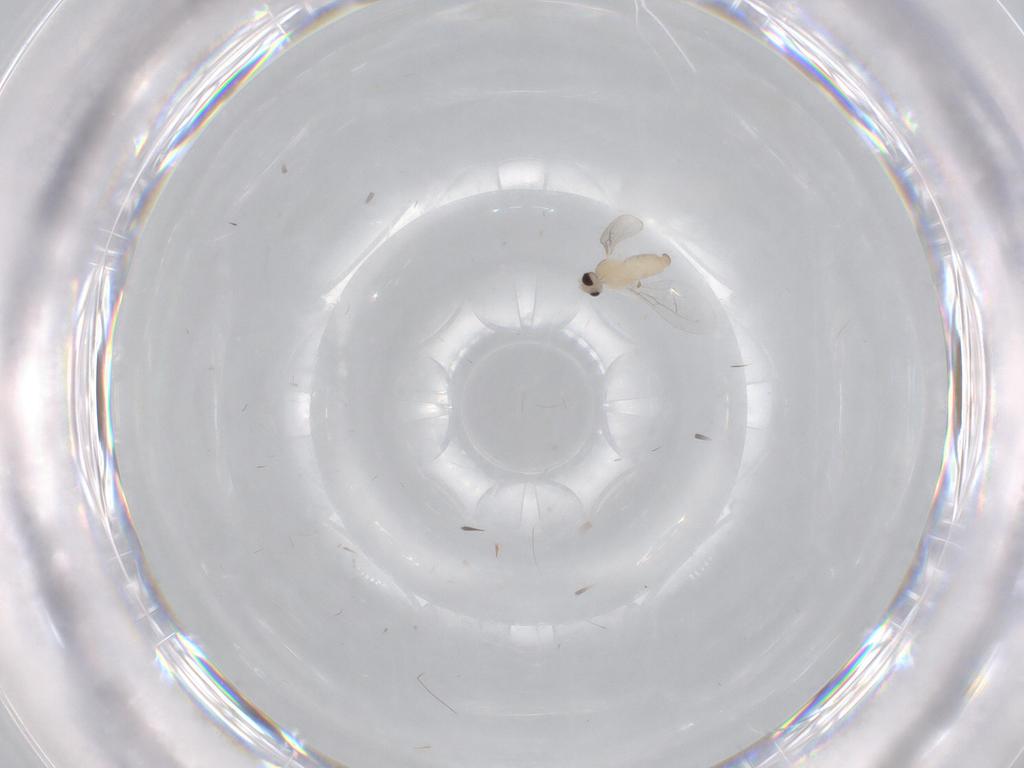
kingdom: Animalia
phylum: Arthropoda
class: Insecta
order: Diptera
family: Cecidomyiidae
